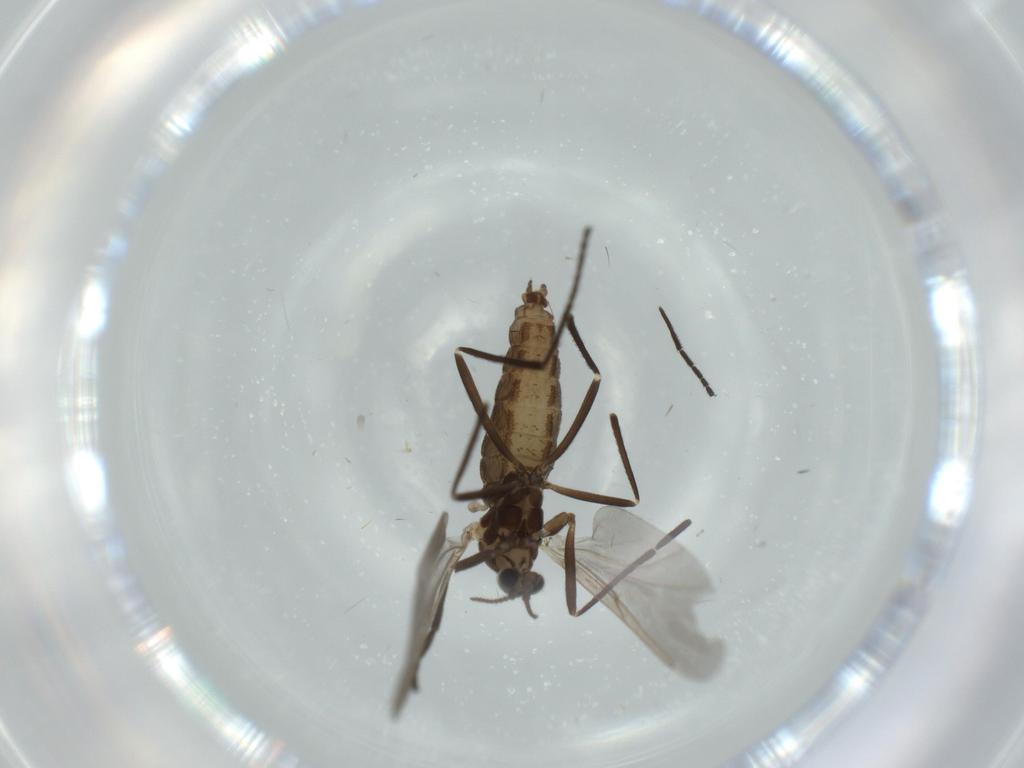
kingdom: Animalia
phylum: Arthropoda
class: Insecta
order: Diptera
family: Cecidomyiidae
